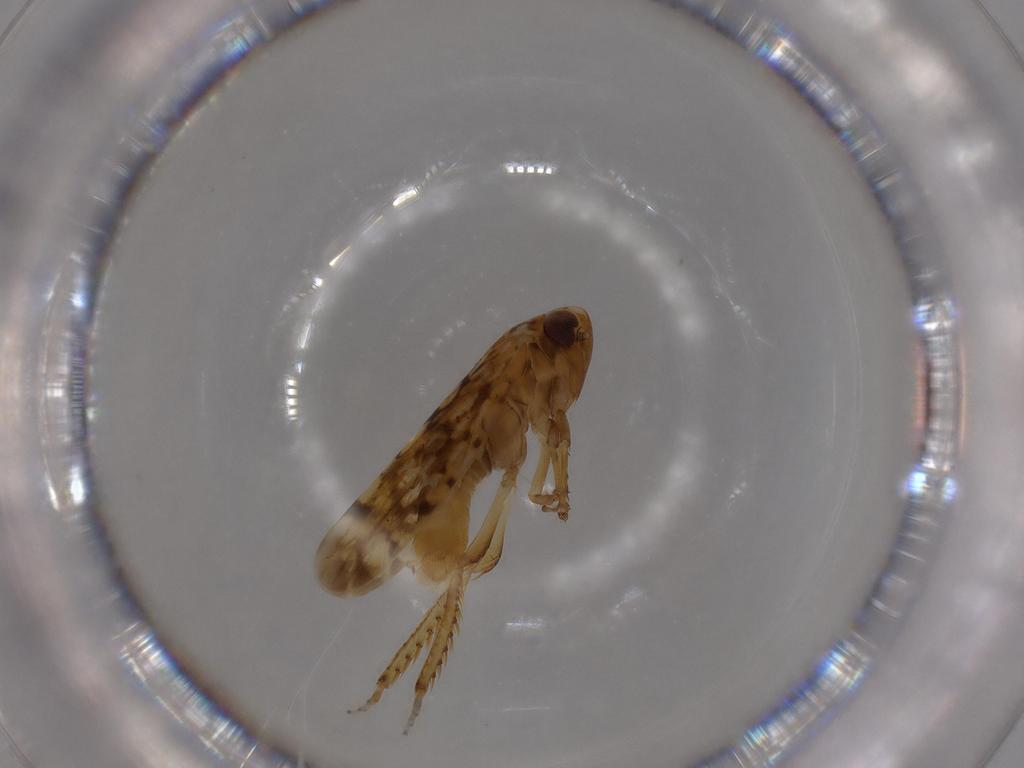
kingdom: Animalia
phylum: Arthropoda
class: Insecta
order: Hemiptera
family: Cicadellidae
